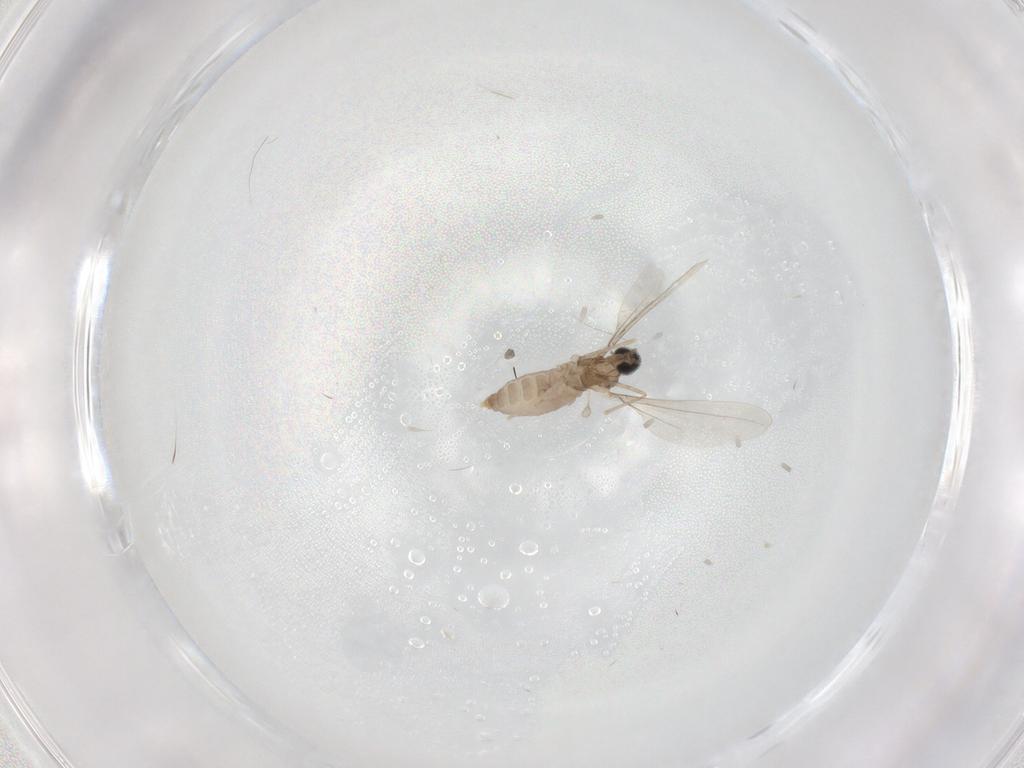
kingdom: Animalia
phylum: Arthropoda
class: Insecta
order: Diptera
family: Cecidomyiidae
